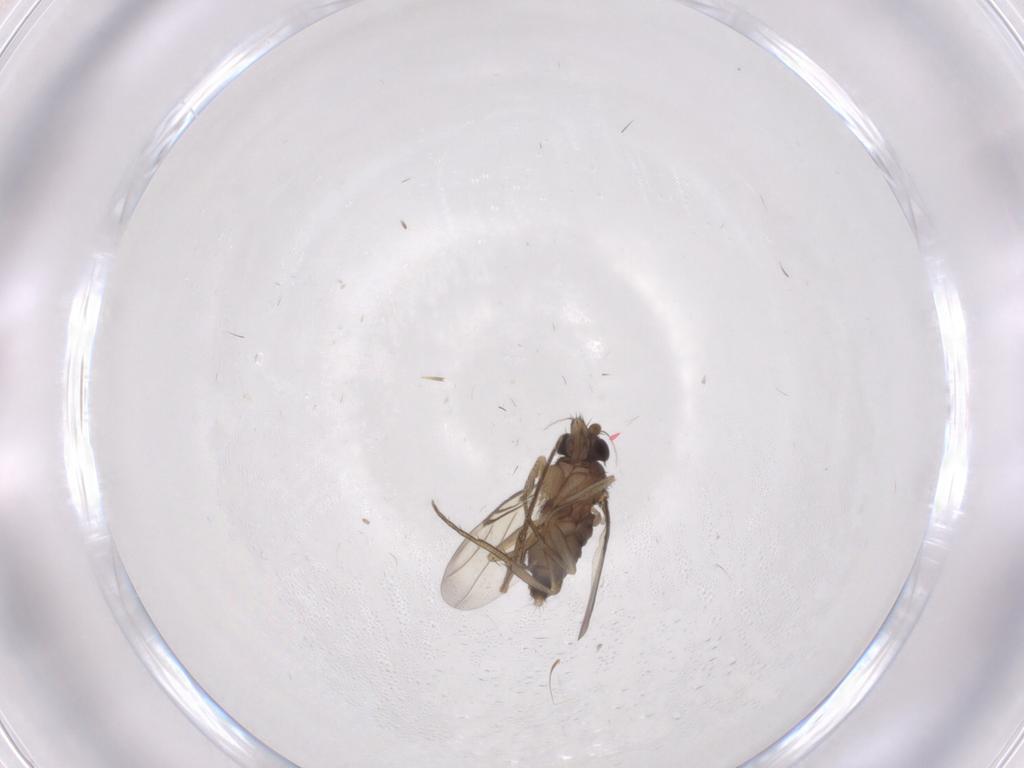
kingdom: Animalia
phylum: Arthropoda
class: Insecta
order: Diptera
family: Phoridae
